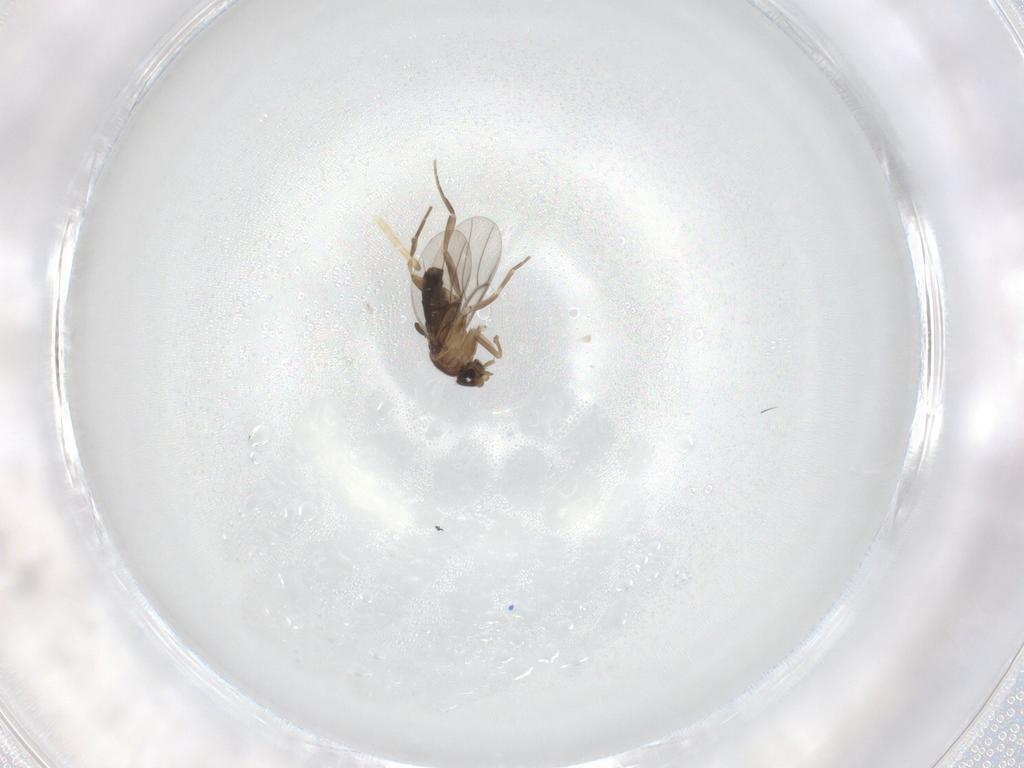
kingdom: Animalia
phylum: Arthropoda
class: Insecta
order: Diptera
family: Phoridae
